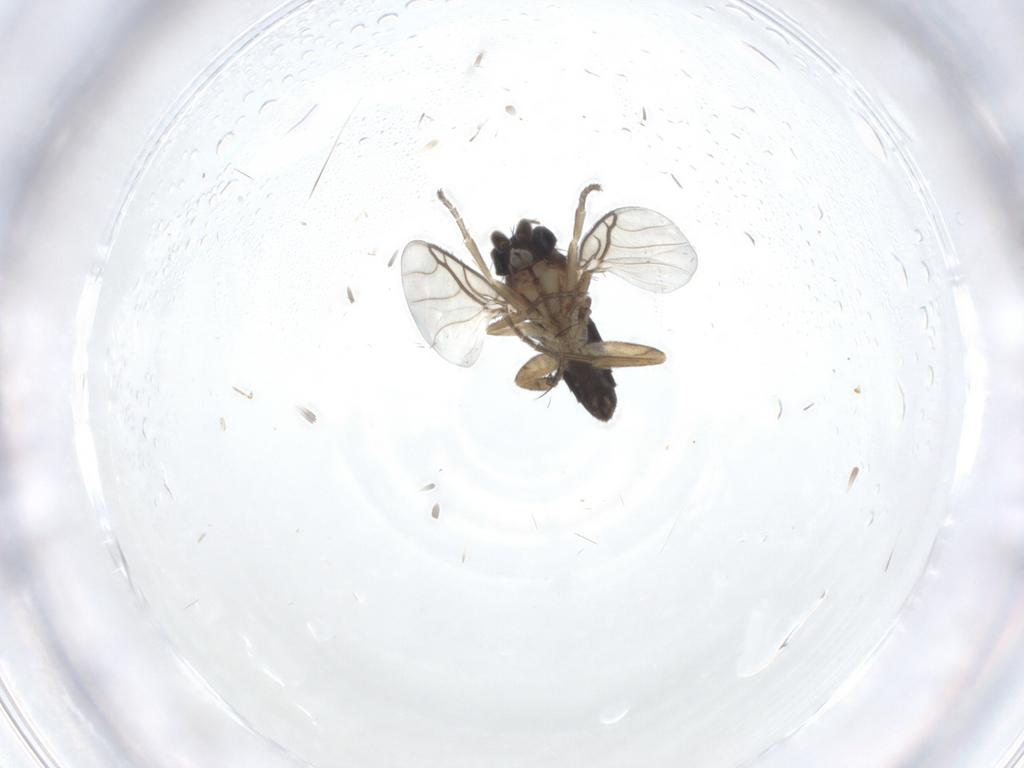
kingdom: Animalia
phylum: Arthropoda
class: Insecta
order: Diptera
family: Phoridae
